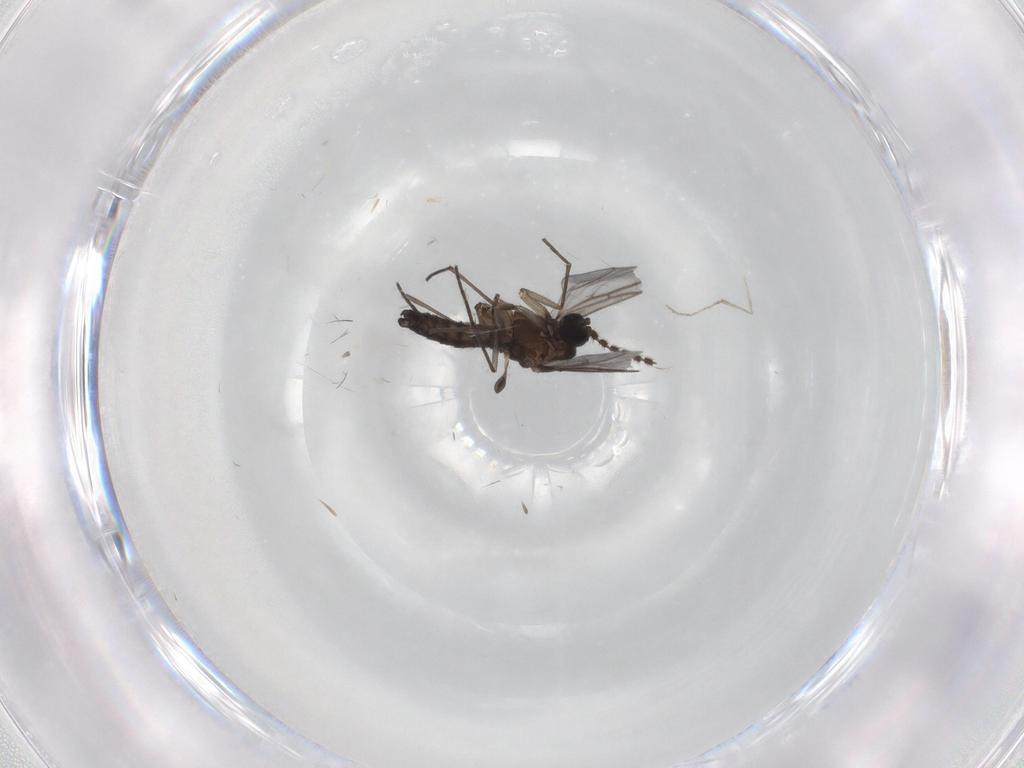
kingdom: Animalia
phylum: Arthropoda
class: Insecta
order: Diptera
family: Sciaridae
